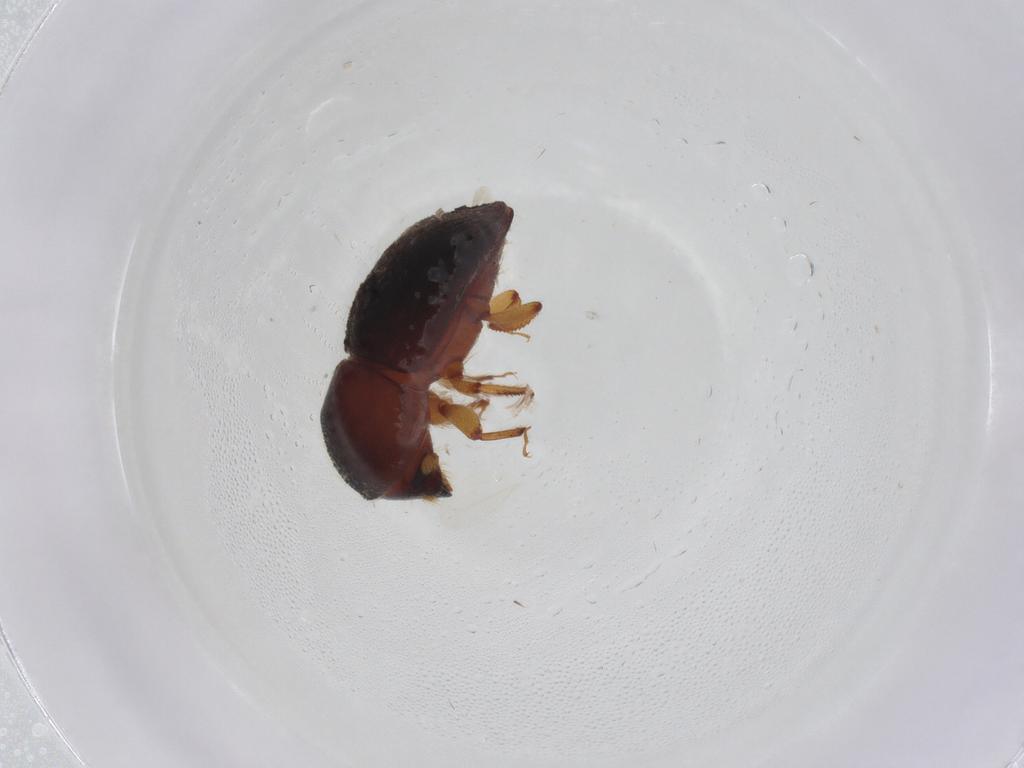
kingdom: Animalia
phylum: Arthropoda
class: Insecta
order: Coleoptera
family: Curculionidae
